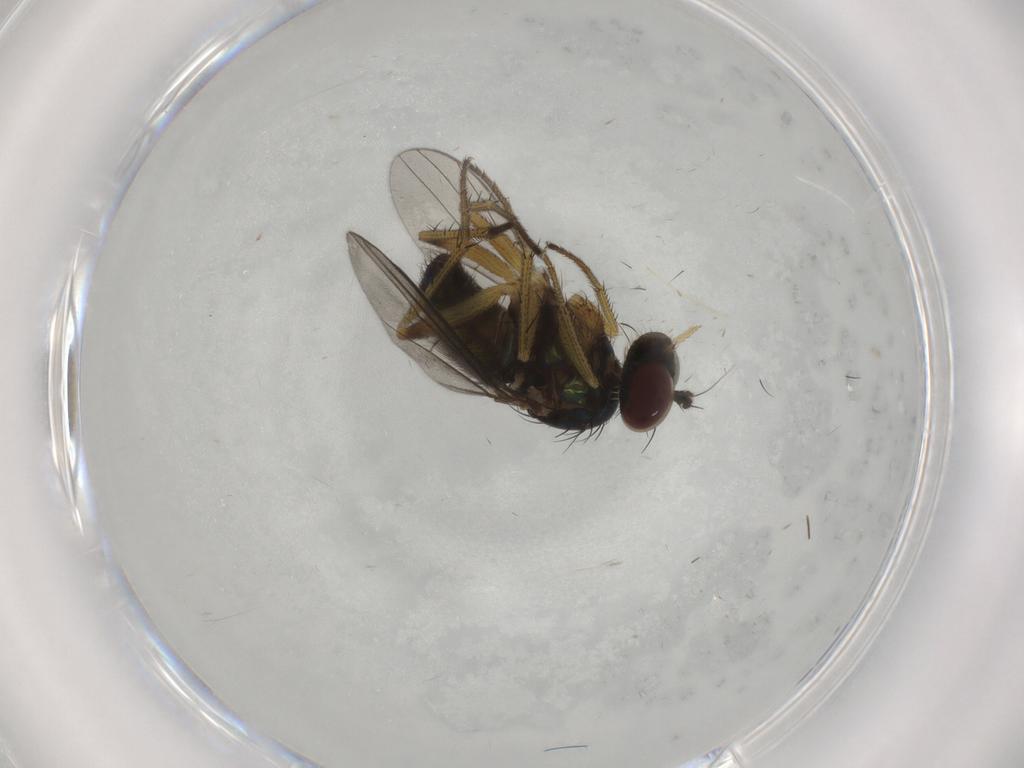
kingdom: Animalia
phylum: Arthropoda
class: Insecta
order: Diptera
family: Dolichopodidae
